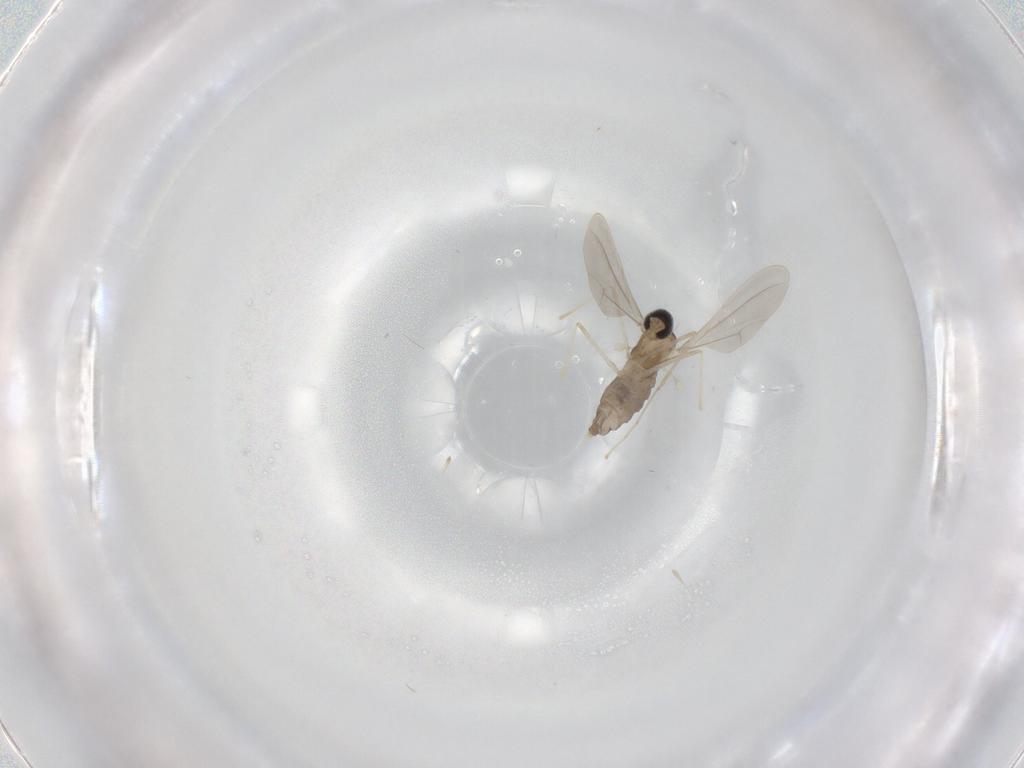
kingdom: Animalia
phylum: Arthropoda
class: Insecta
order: Diptera
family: Cecidomyiidae
